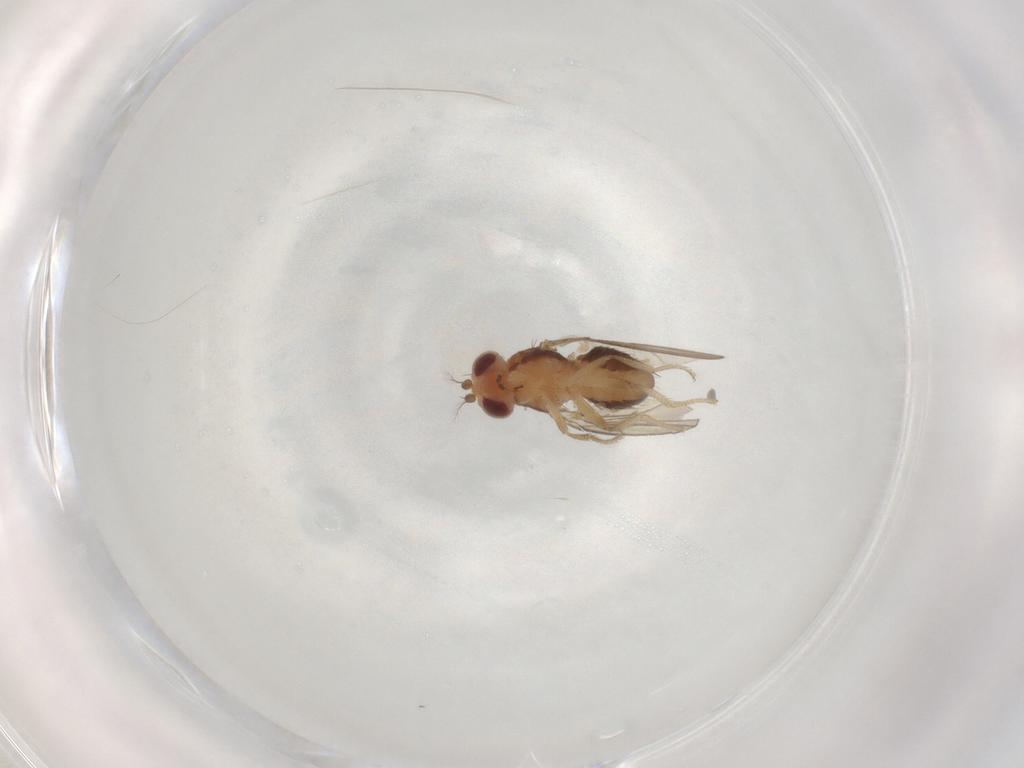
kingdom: Animalia
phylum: Arthropoda
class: Insecta
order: Diptera
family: Drosophilidae
